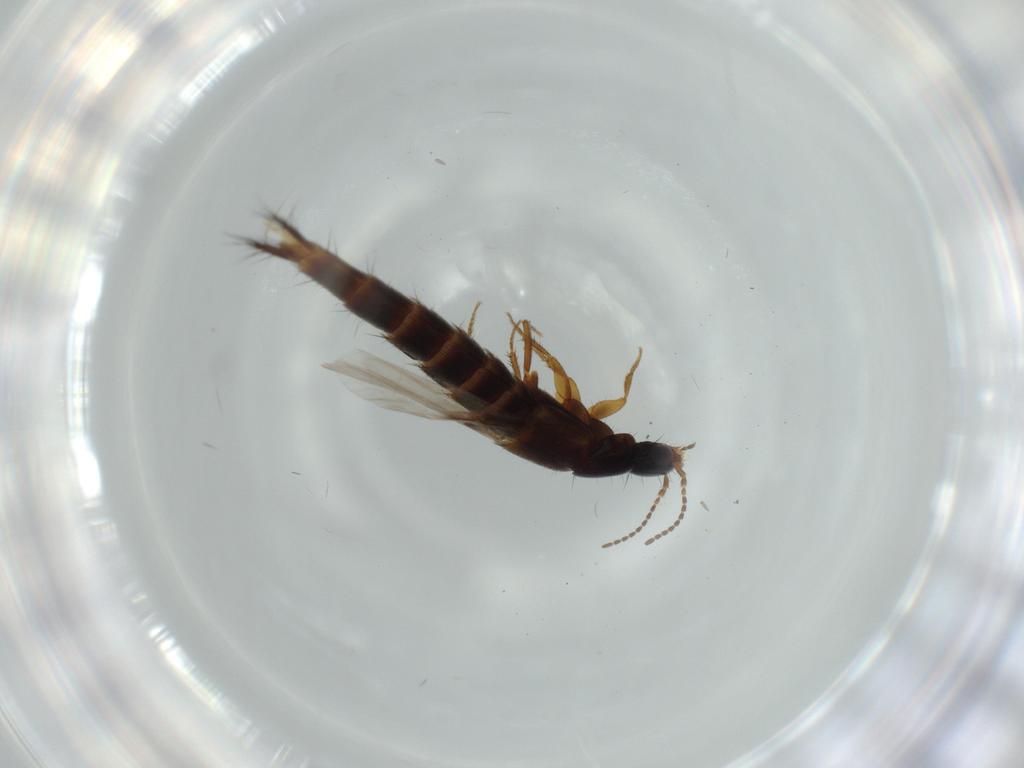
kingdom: Animalia
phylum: Arthropoda
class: Insecta
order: Coleoptera
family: Staphylinidae
